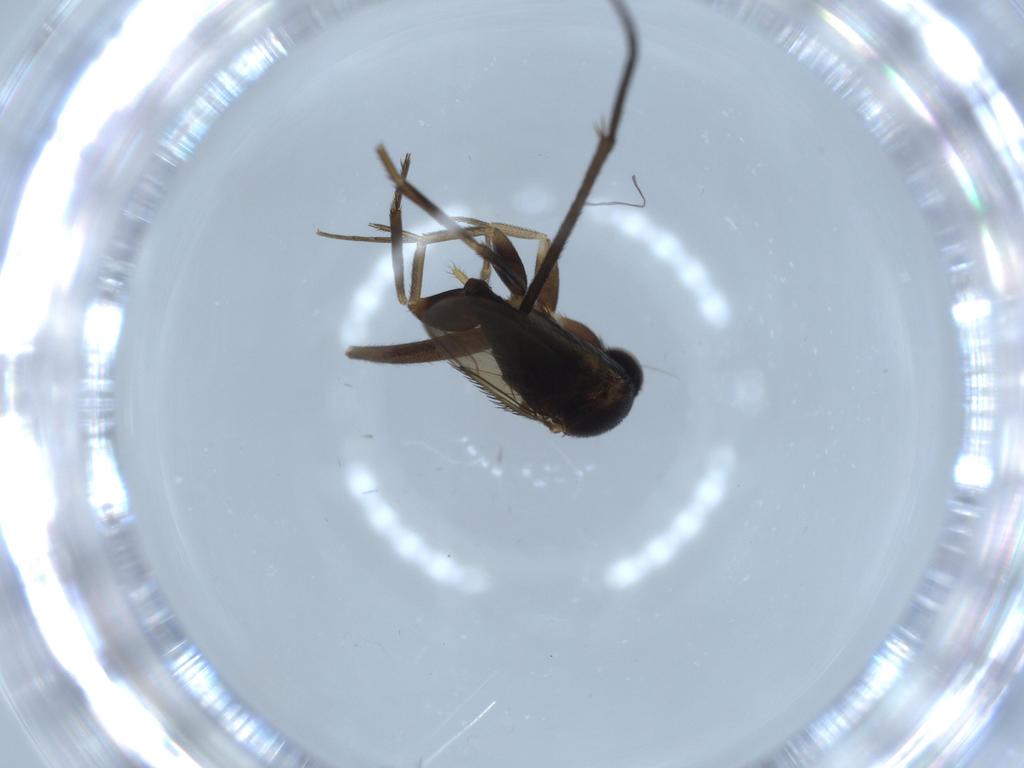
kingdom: Animalia
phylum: Arthropoda
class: Insecta
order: Diptera
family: Phoridae
